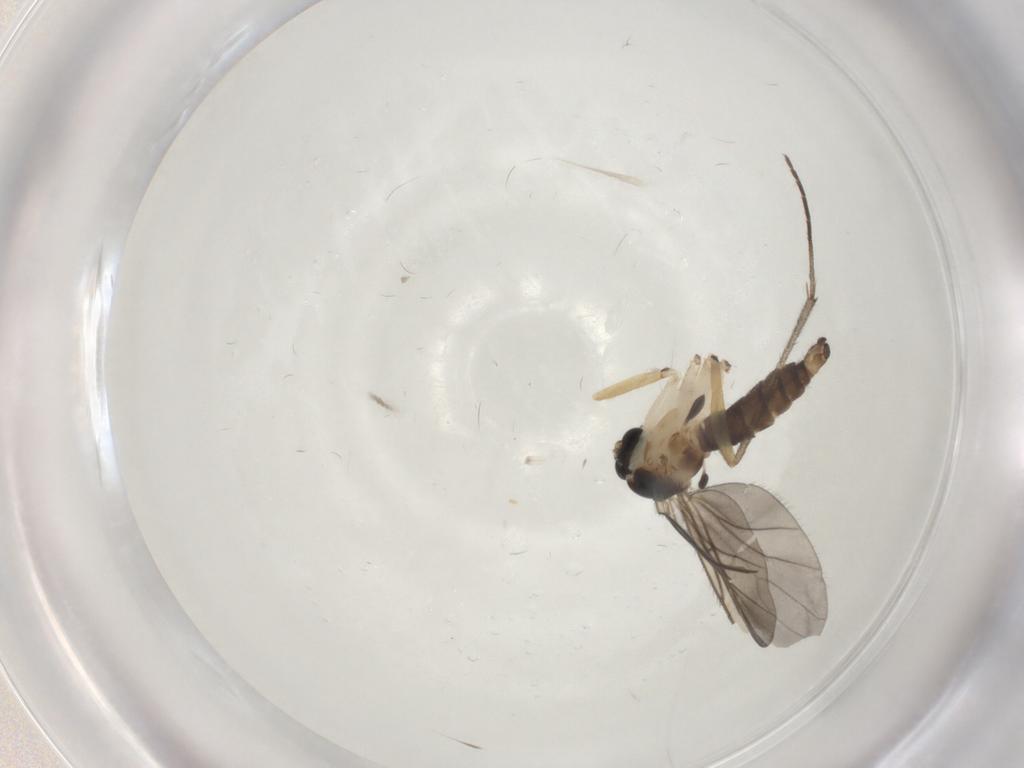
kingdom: Animalia
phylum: Arthropoda
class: Insecta
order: Diptera
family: Sciaridae
